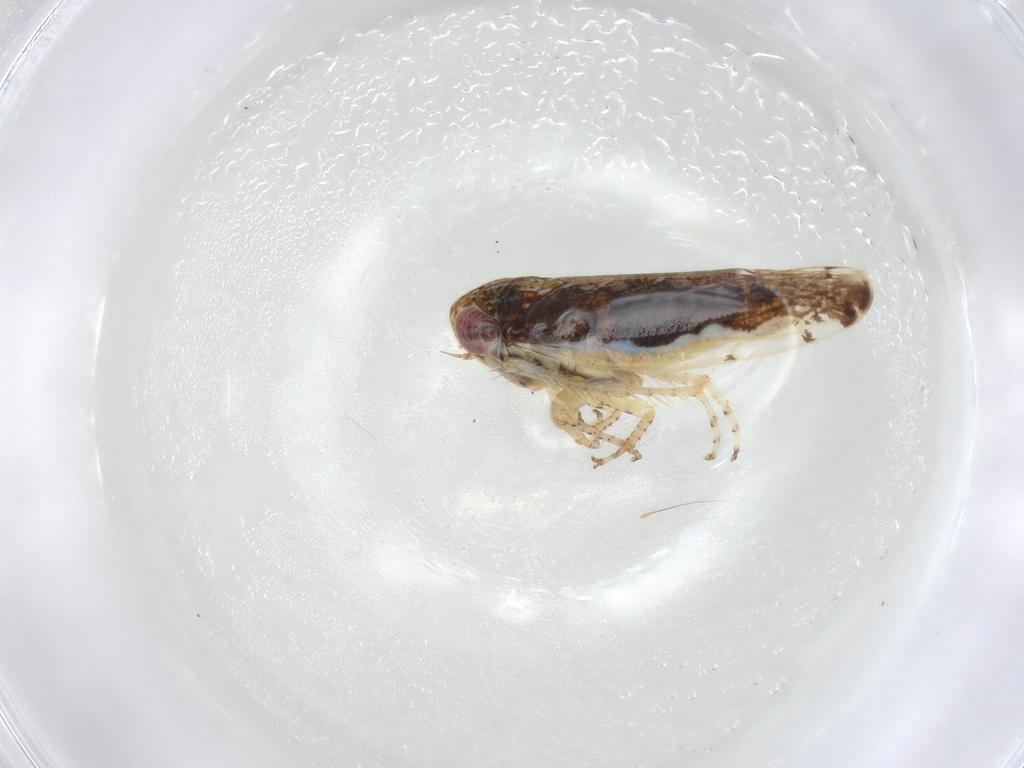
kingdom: Animalia
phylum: Arthropoda
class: Insecta
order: Hemiptera
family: Cicadellidae
